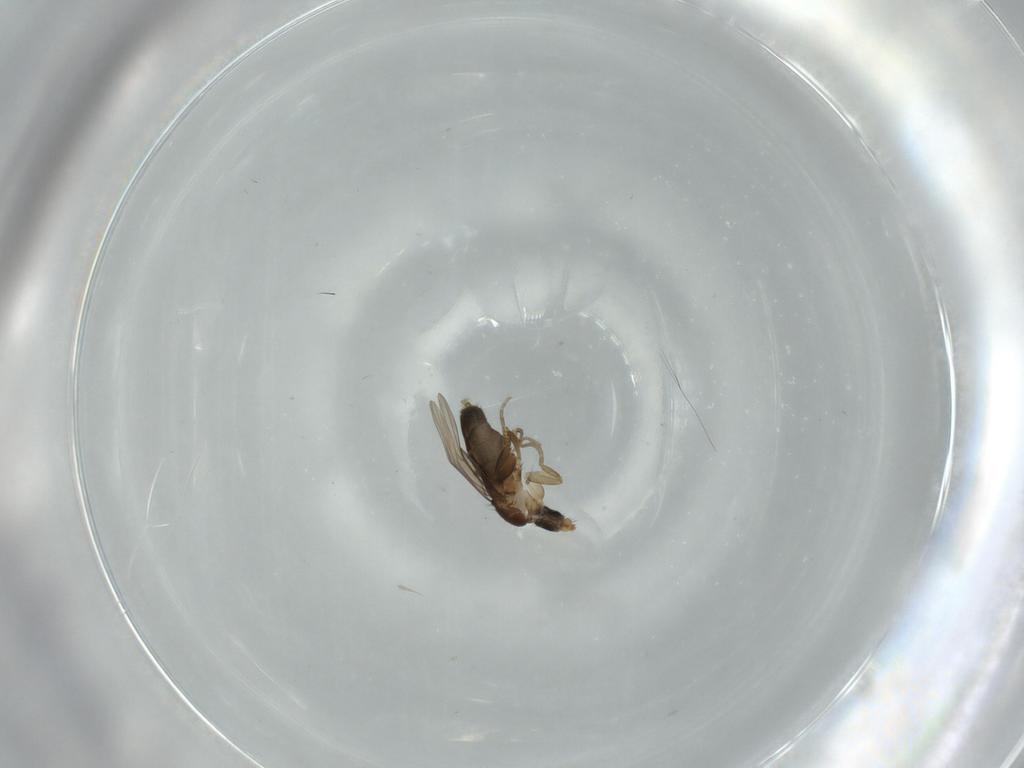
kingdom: Animalia
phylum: Arthropoda
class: Insecta
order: Diptera
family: Phoridae
